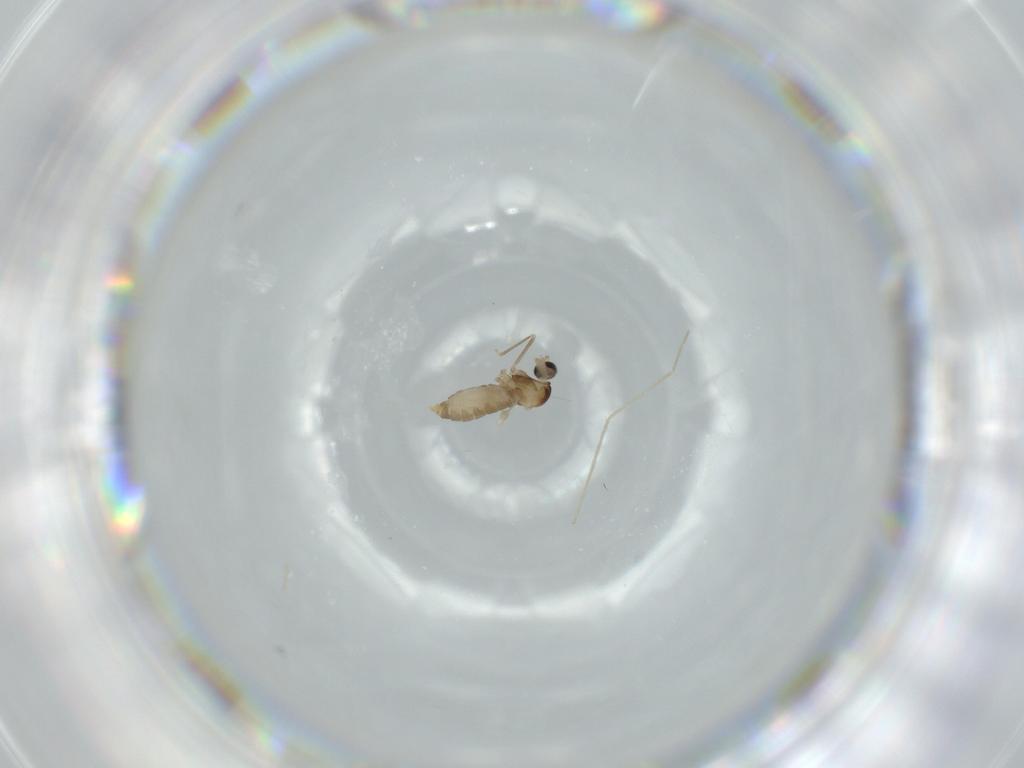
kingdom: Animalia
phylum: Arthropoda
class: Insecta
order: Diptera
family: Cecidomyiidae
